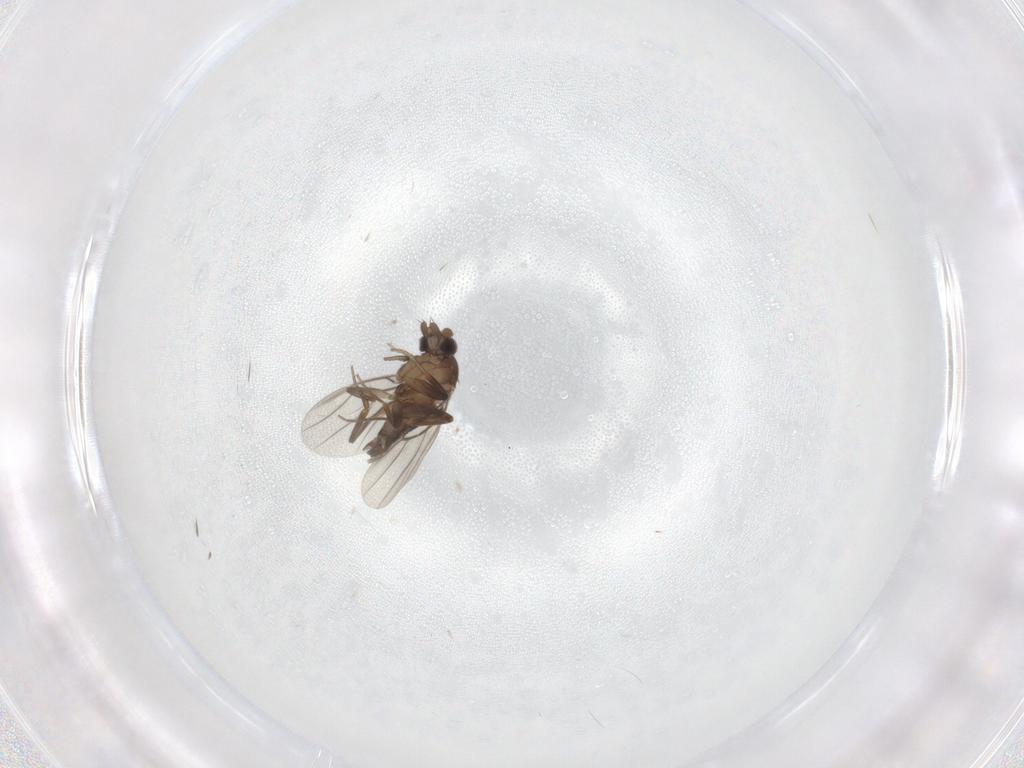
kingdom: Animalia
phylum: Arthropoda
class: Insecta
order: Diptera
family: Phoridae
